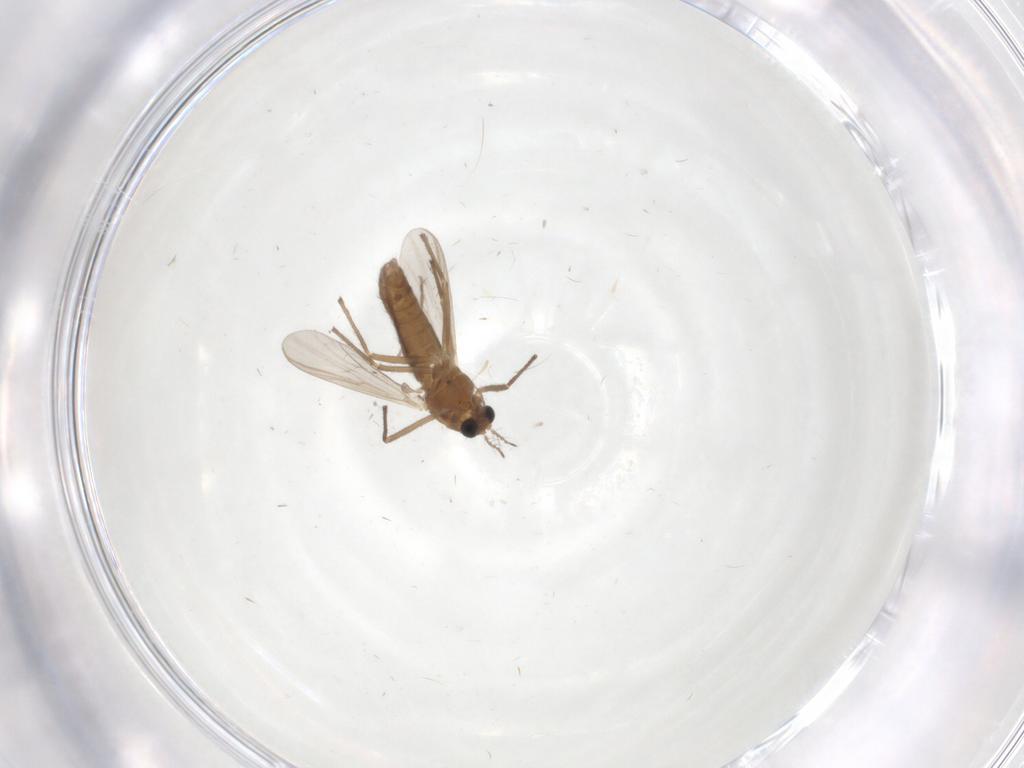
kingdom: Animalia
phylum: Arthropoda
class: Insecta
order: Diptera
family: Chironomidae
